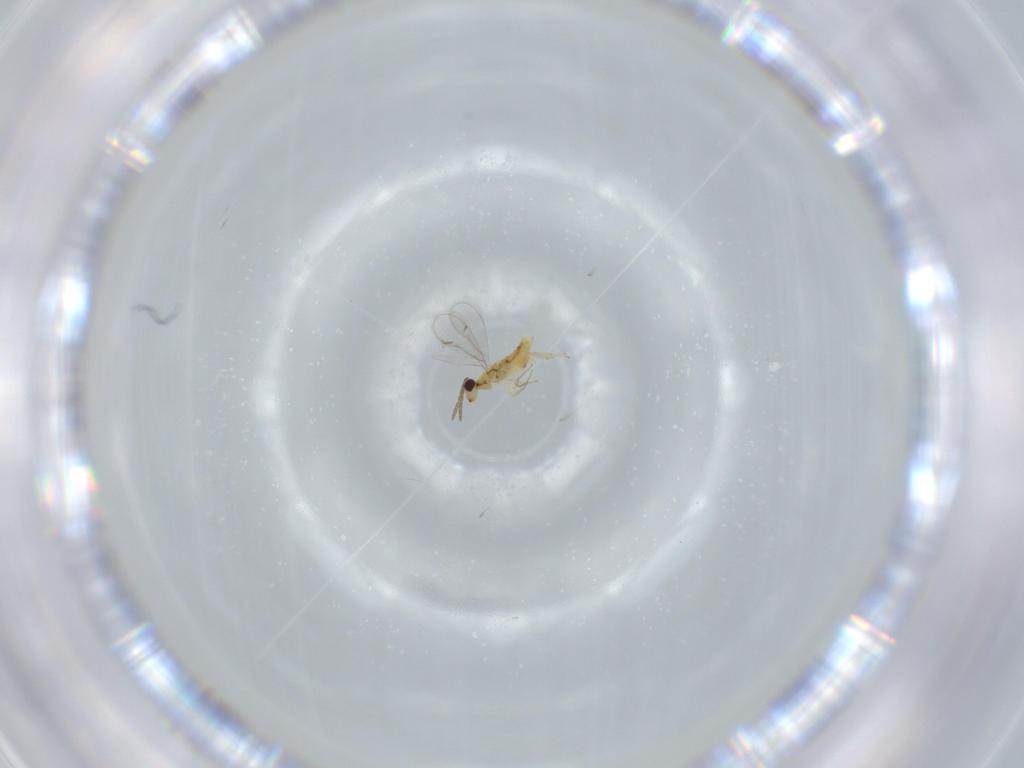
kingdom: Animalia
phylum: Arthropoda
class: Insecta
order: Hymenoptera
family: Aphelinidae
